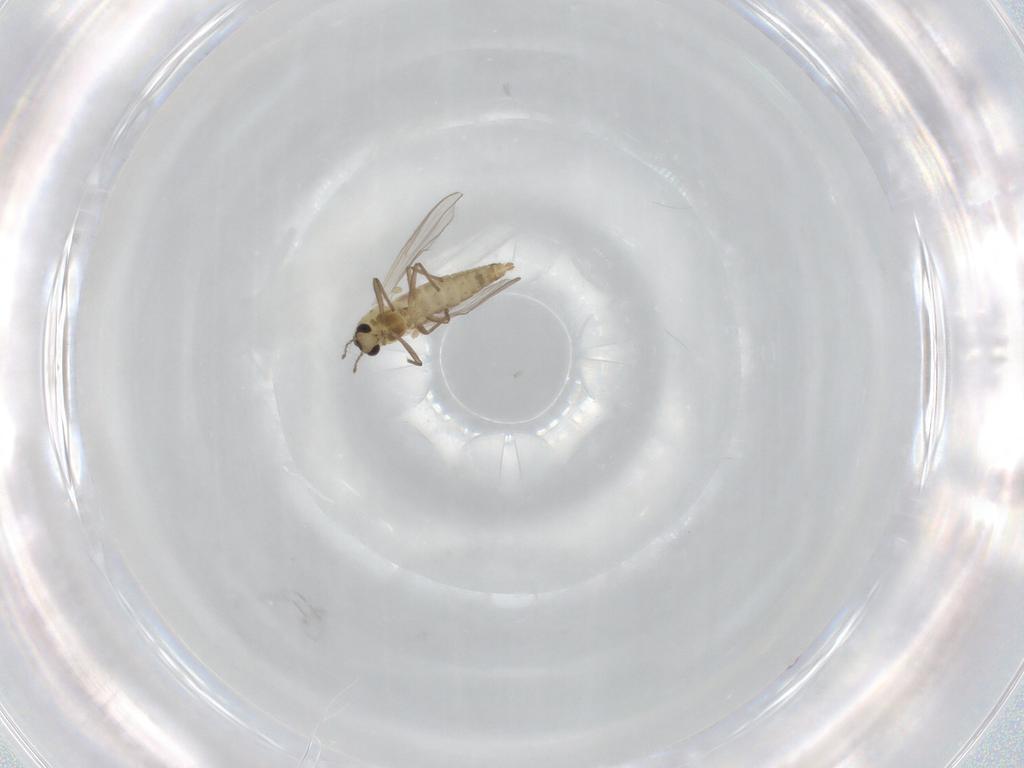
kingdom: Animalia
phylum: Arthropoda
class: Insecta
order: Diptera
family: Chironomidae
